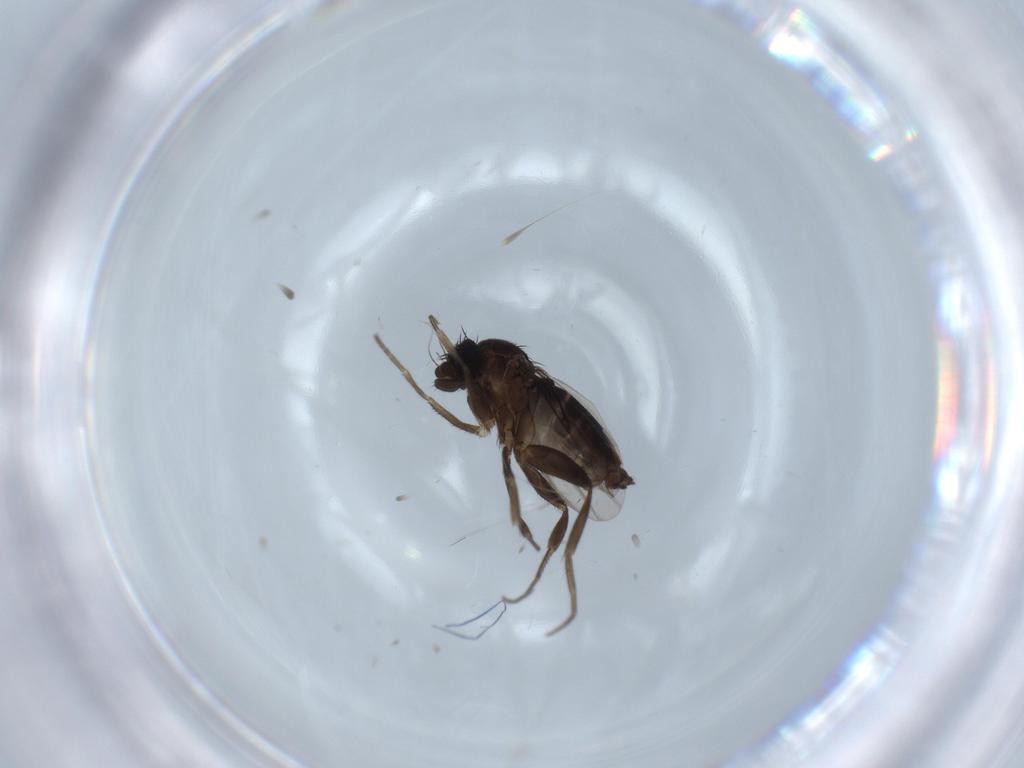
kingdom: Animalia
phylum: Arthropoda
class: Insecta
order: Diptera
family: Phoridae
